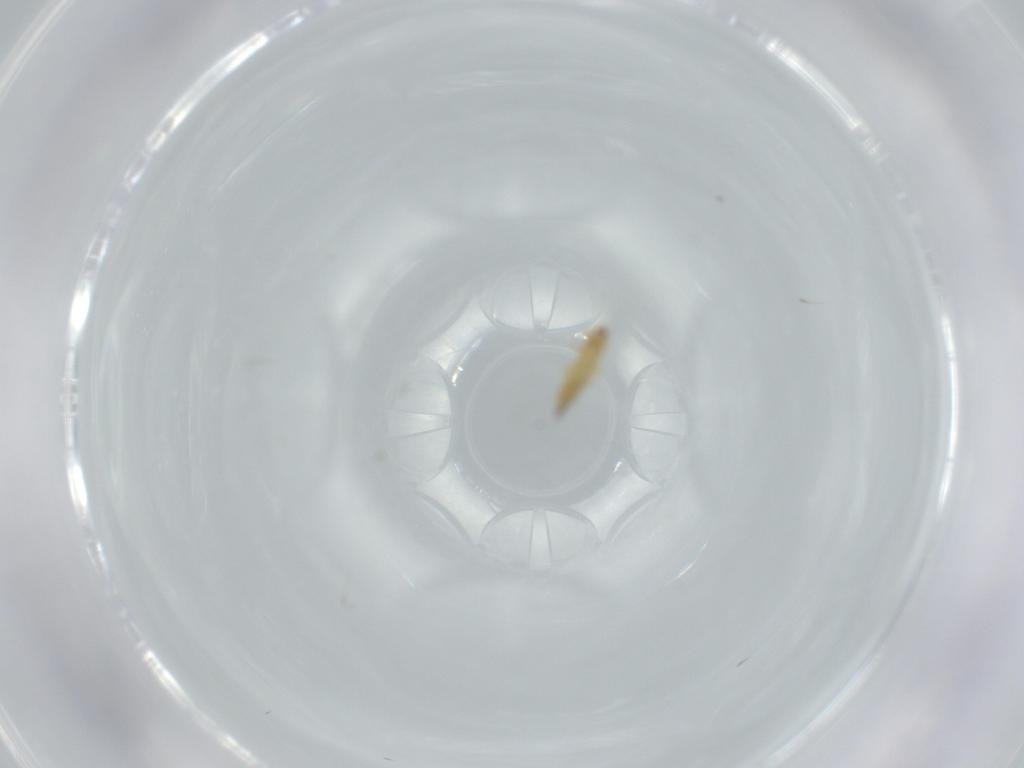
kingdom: Animalia
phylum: Arthropoda
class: Insecta
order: Thysanoptera
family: Thripidae
